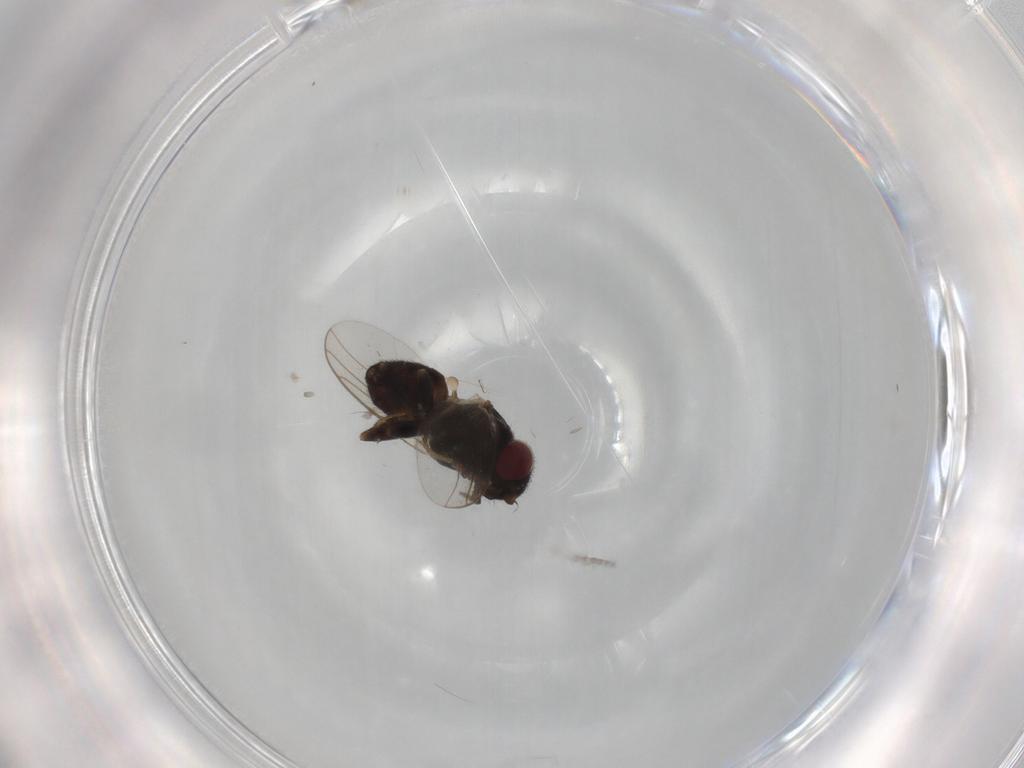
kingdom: Animalia
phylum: Arthropoda
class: Insecta
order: Diptera
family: Chloropidae
